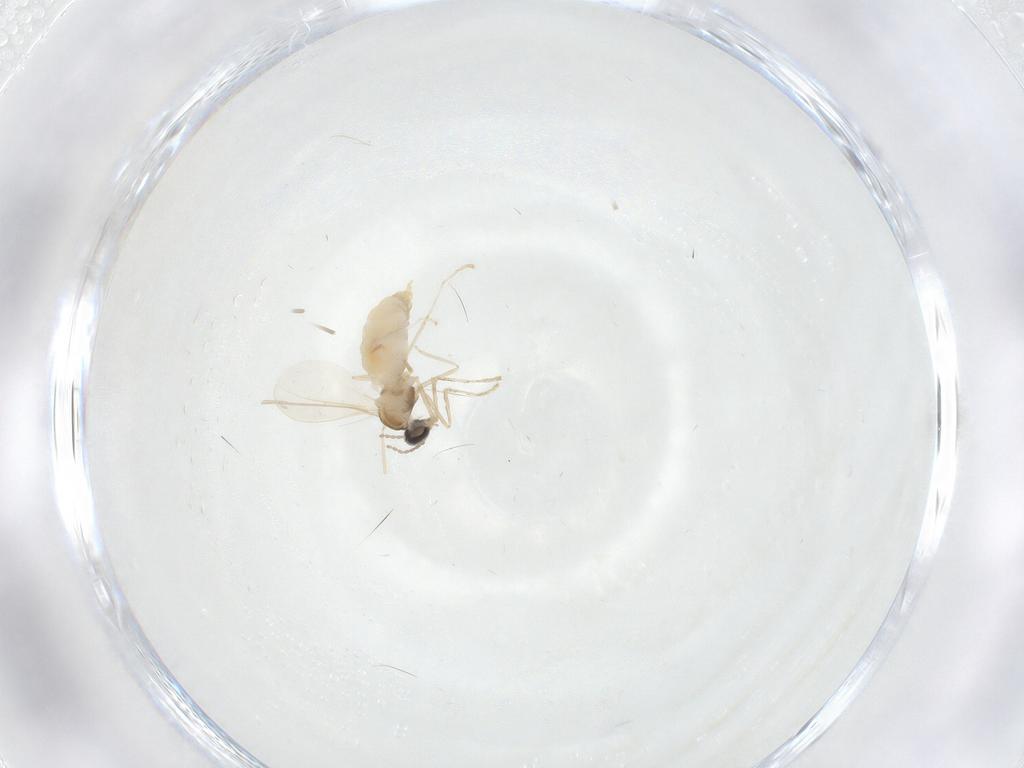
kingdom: Animalia
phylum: Arthropoda
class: Insecta
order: Diptera
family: Cecidomyiidae
